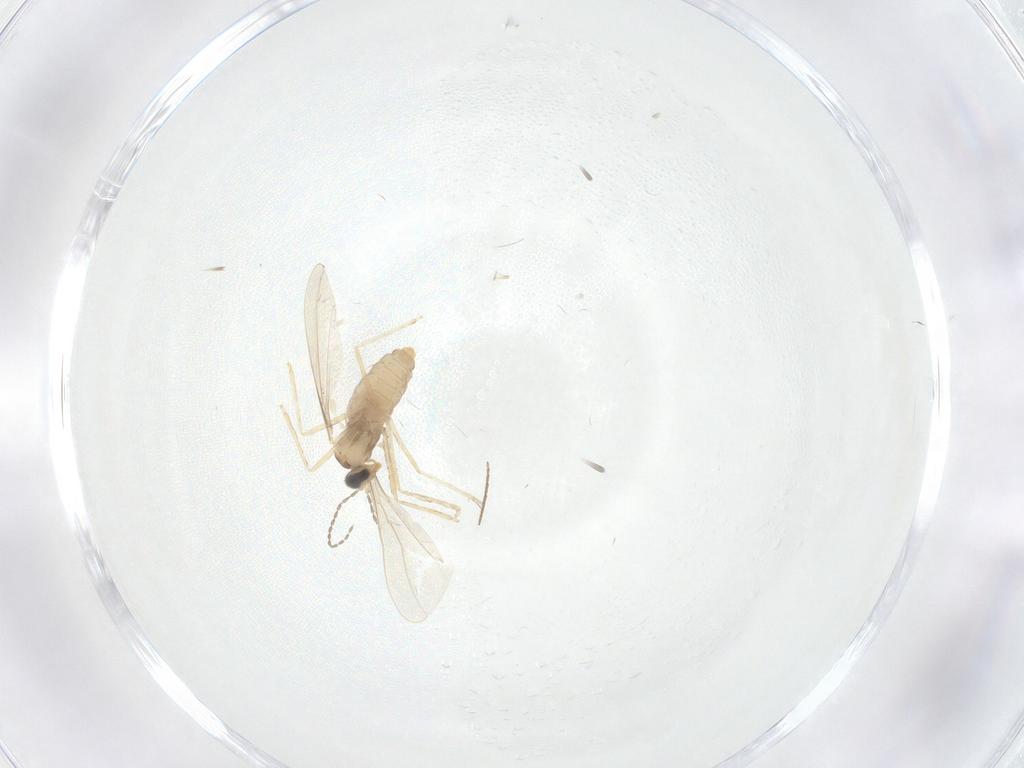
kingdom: Animalia
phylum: Arthropoda
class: Insecta
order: Diptera
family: Chironomidae
